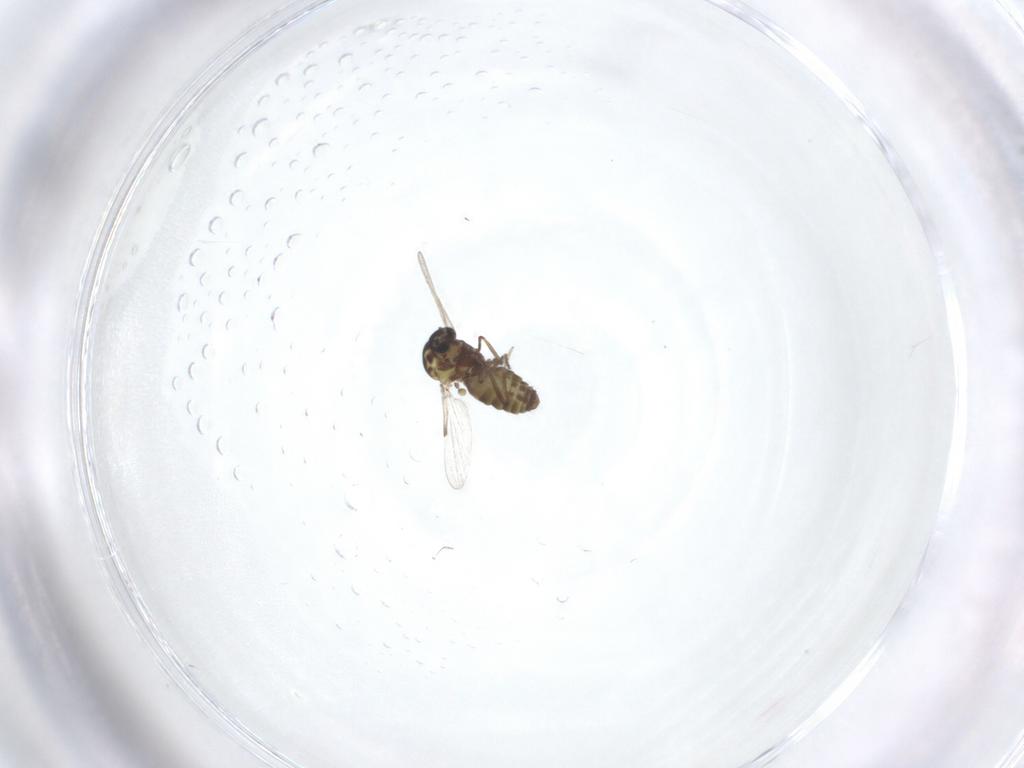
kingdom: Animalia
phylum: Arthropoda
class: Insecta
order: Diptera
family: Ceratopogonidae
